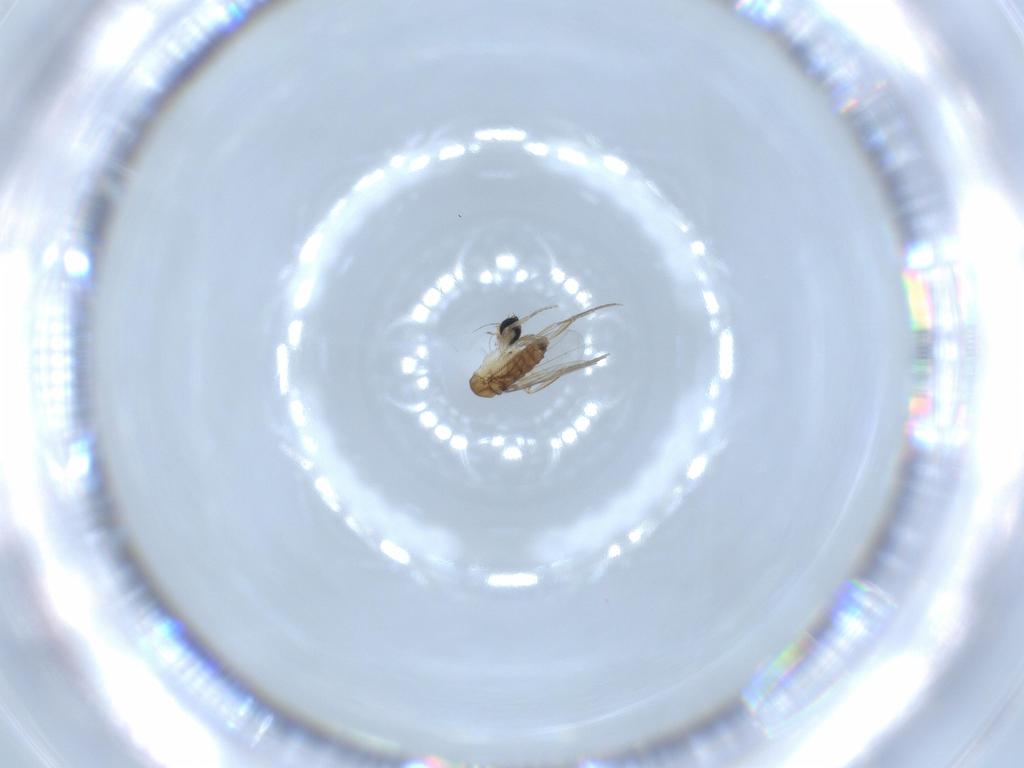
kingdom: Animalia
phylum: Arthropoda
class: Insecta
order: Diptera
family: Phoridae
